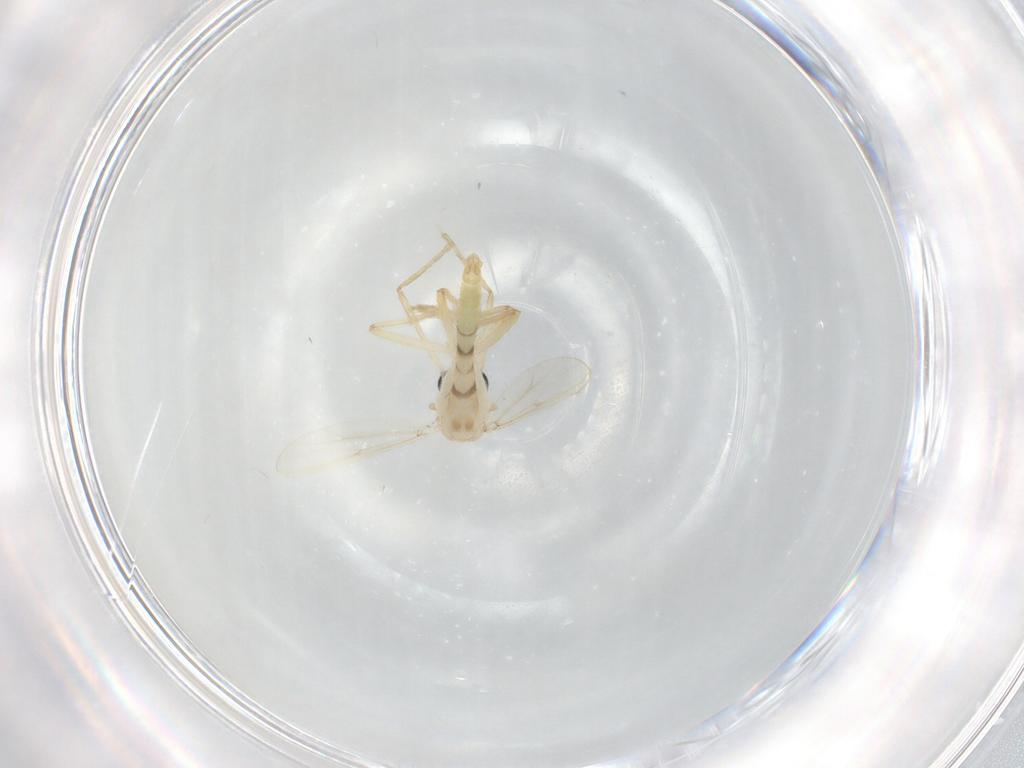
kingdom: Animalia
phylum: Arthropoda
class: Insecta
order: Diptera
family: Chironomidae
